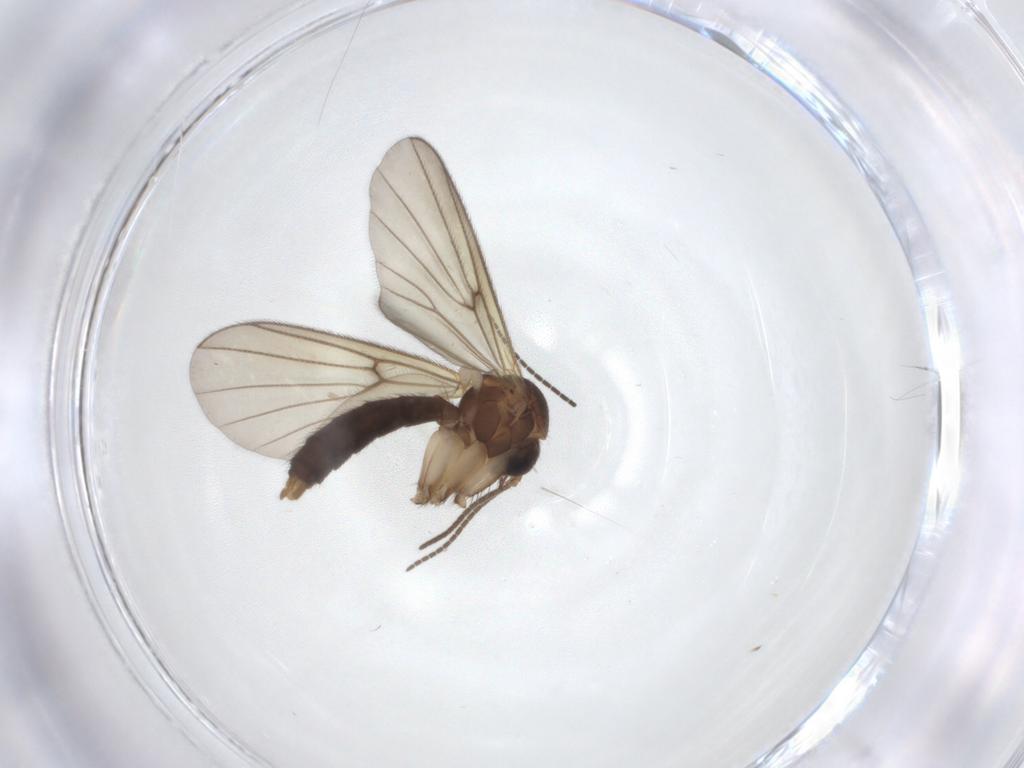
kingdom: Animalia
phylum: Arthropoda
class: Insecta
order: Diptera
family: Mycetophilidae
